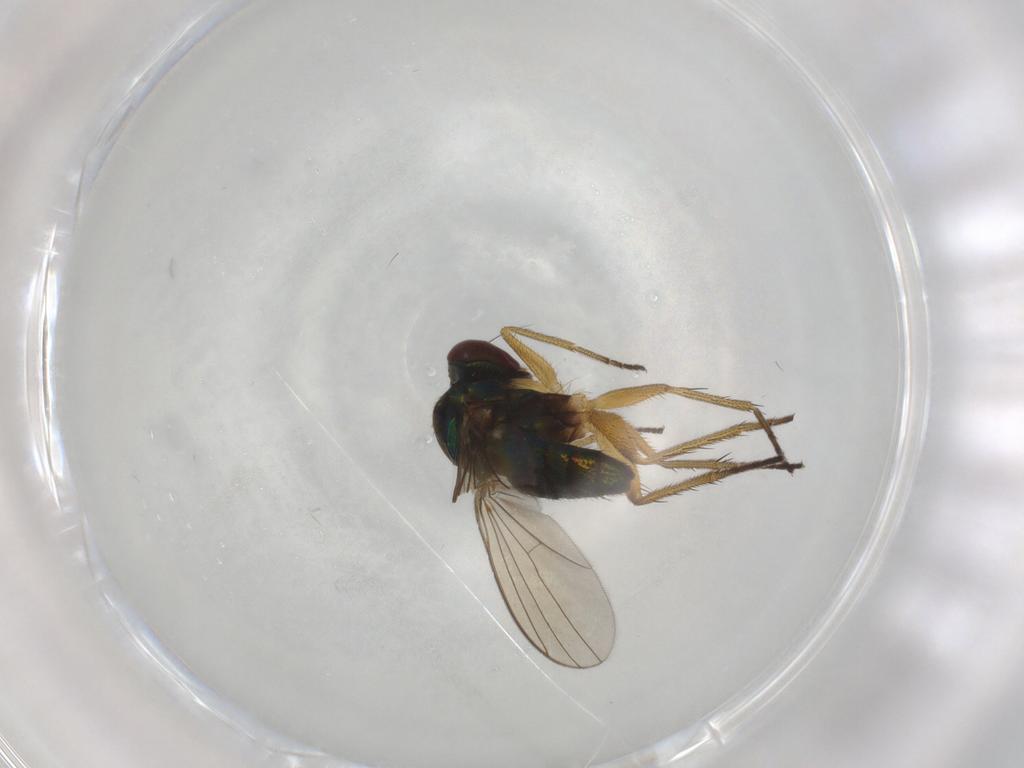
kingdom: Animalia
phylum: Arthropoda
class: Insecta
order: Diptera
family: Dolichopodidae
